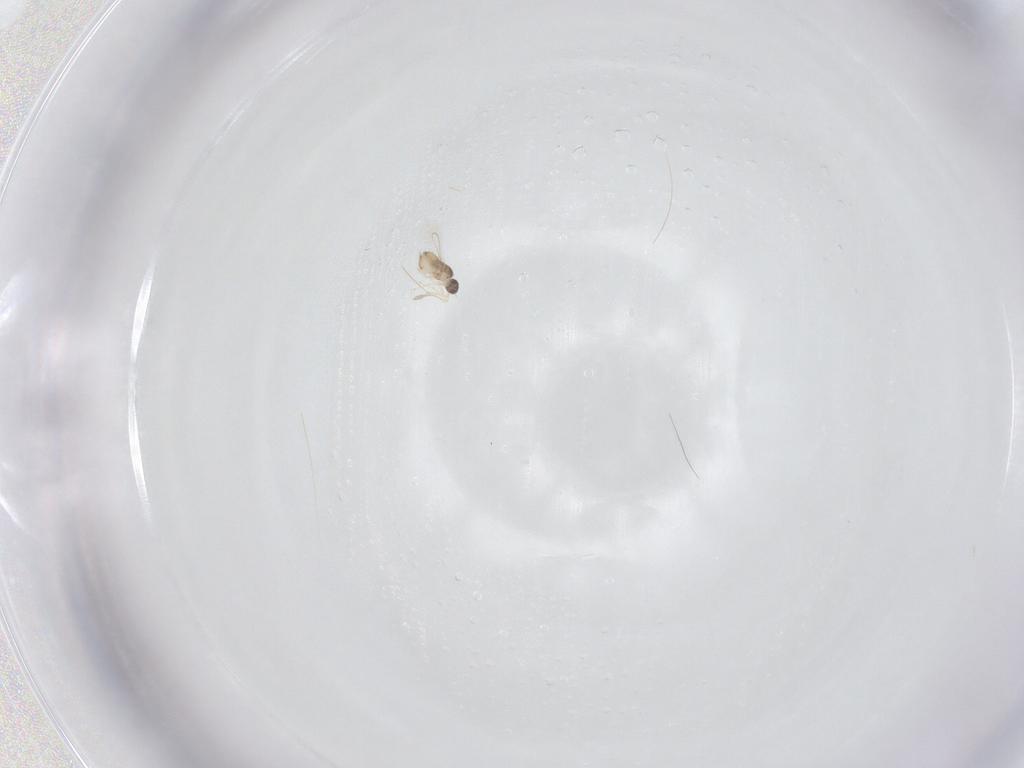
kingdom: Animalia
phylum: Arthropoda
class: Insecta
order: Hymenoptera
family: Mymaridae
